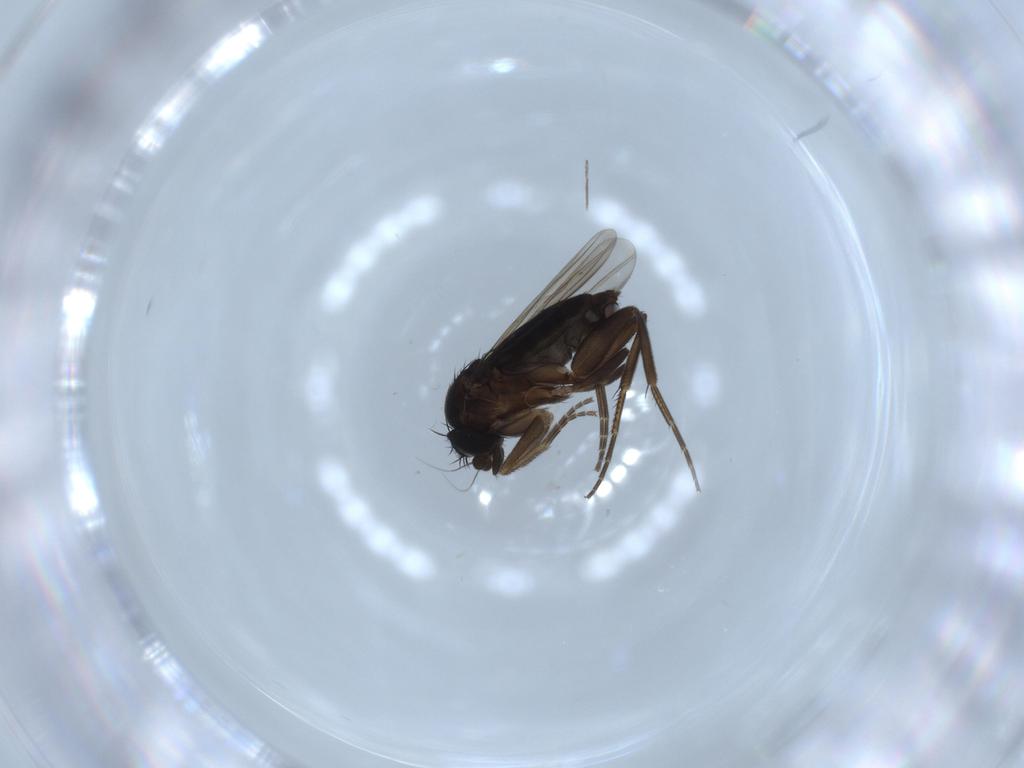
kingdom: Animalia
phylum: Arthropoda
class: Insecta
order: Diptera
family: Phoridae
